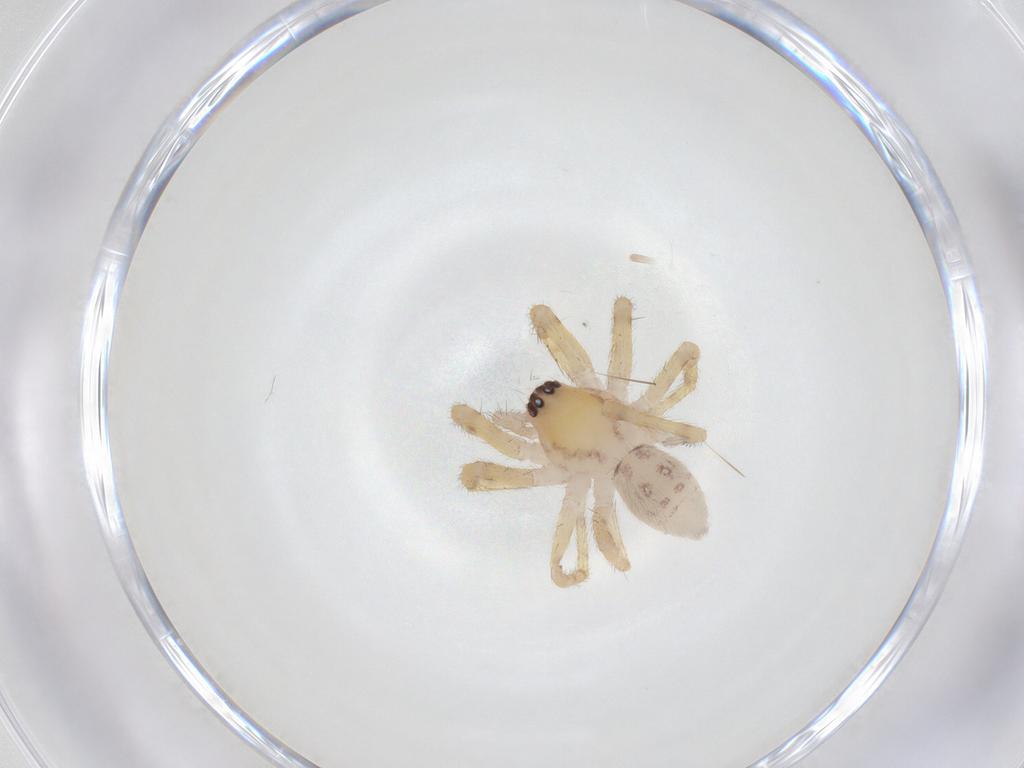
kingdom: Animalia
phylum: Arthropoda
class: Arachnida
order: Araneae
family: Corinnidae
